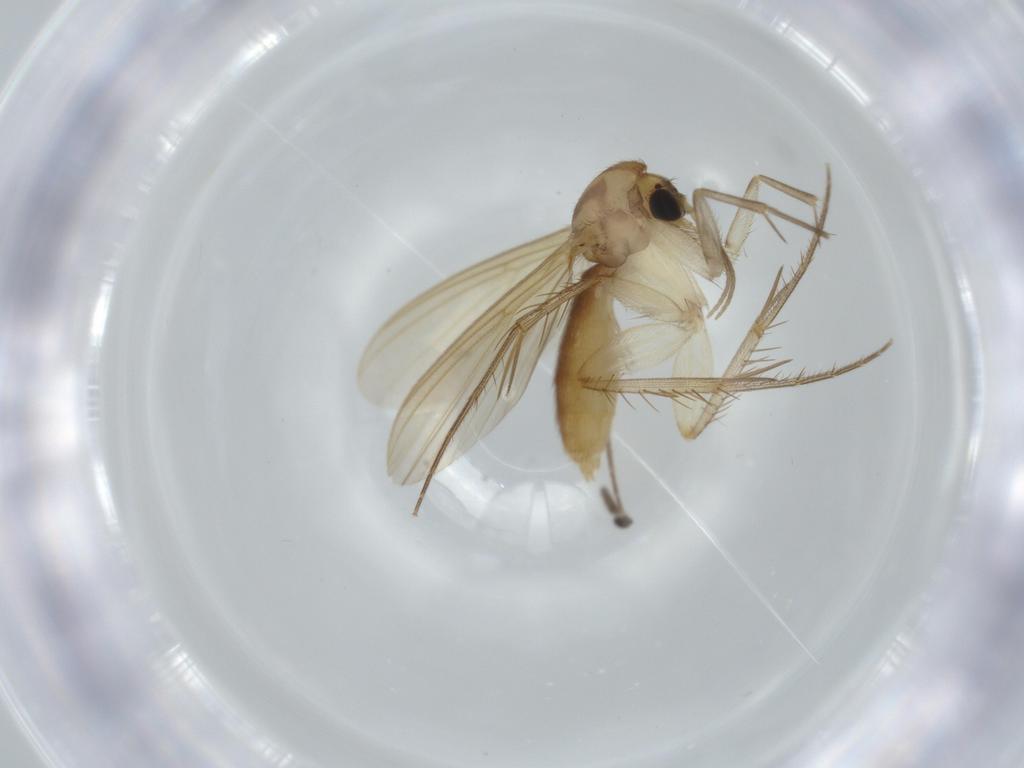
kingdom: Animalia
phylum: Arthropoda
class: Insecta
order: Diptera
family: Mycetophilidae
